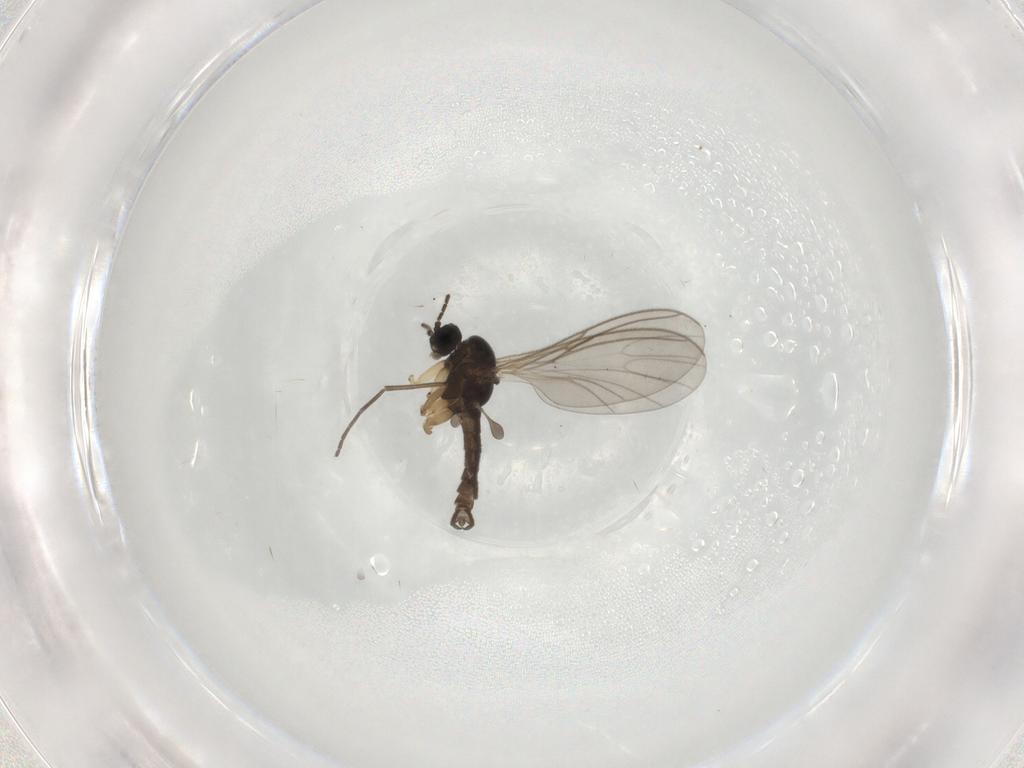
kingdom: Animalia
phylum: Arthropoda
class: Insecta
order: Diptera
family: Sciaridae
